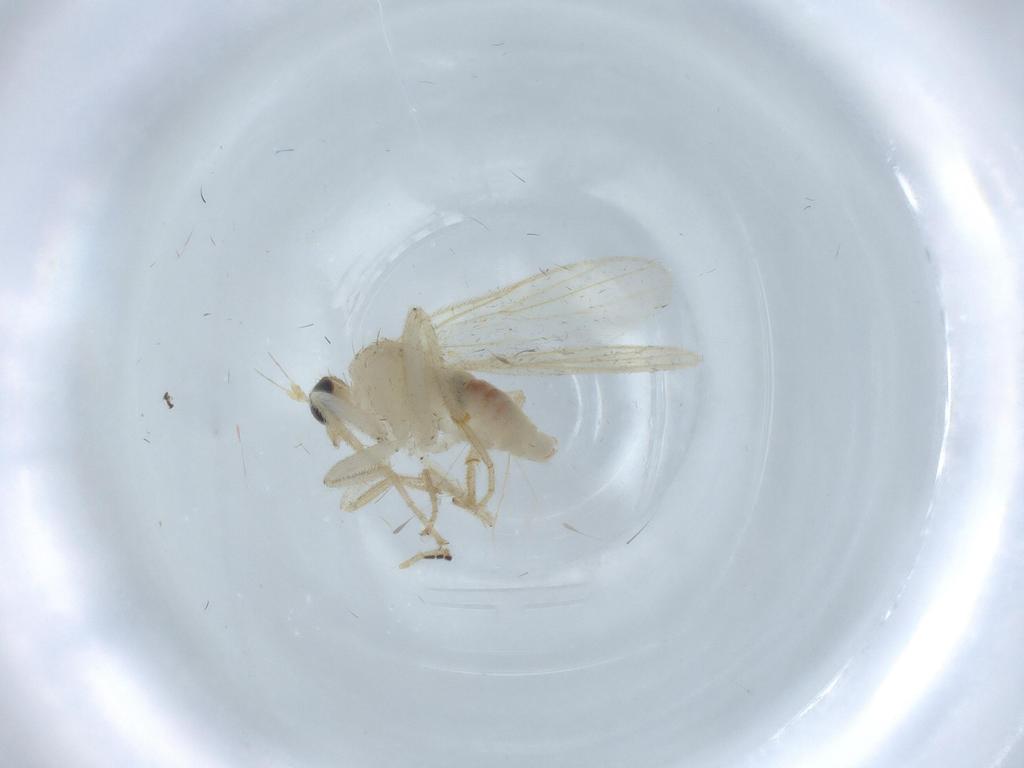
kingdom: Animalia
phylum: Arthropoda
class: Insecta
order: Diptera
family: Hybotidae
